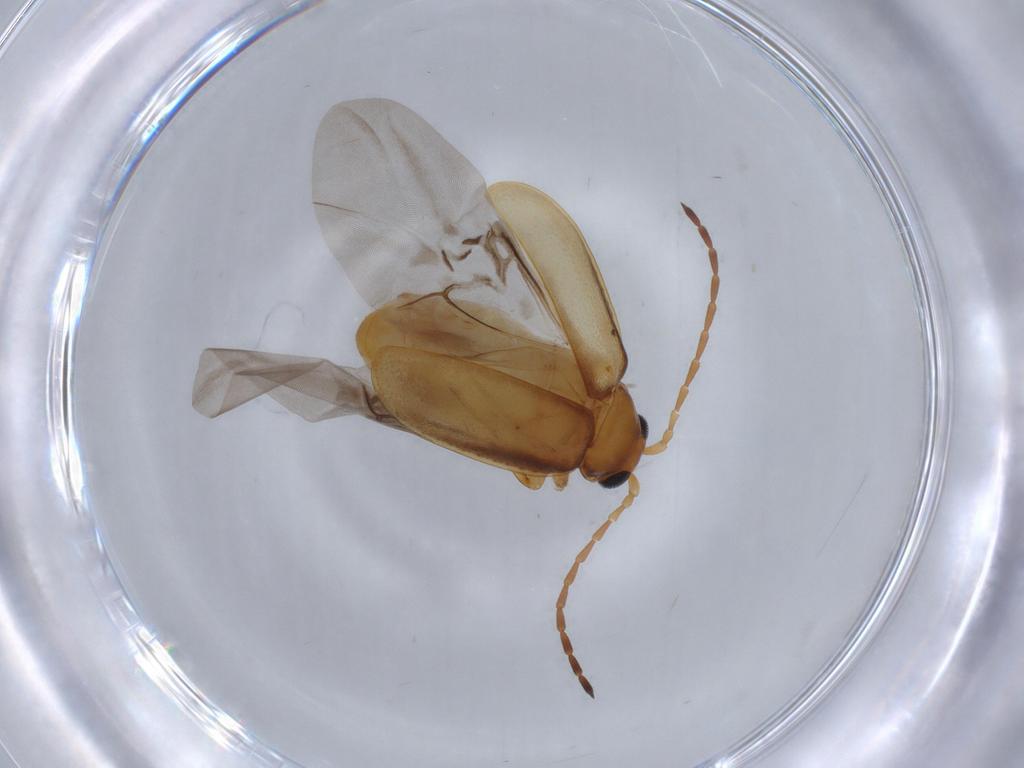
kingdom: Animalia
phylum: Arthropoda
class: Insecta
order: Coleoptera
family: Chrysomelidae
